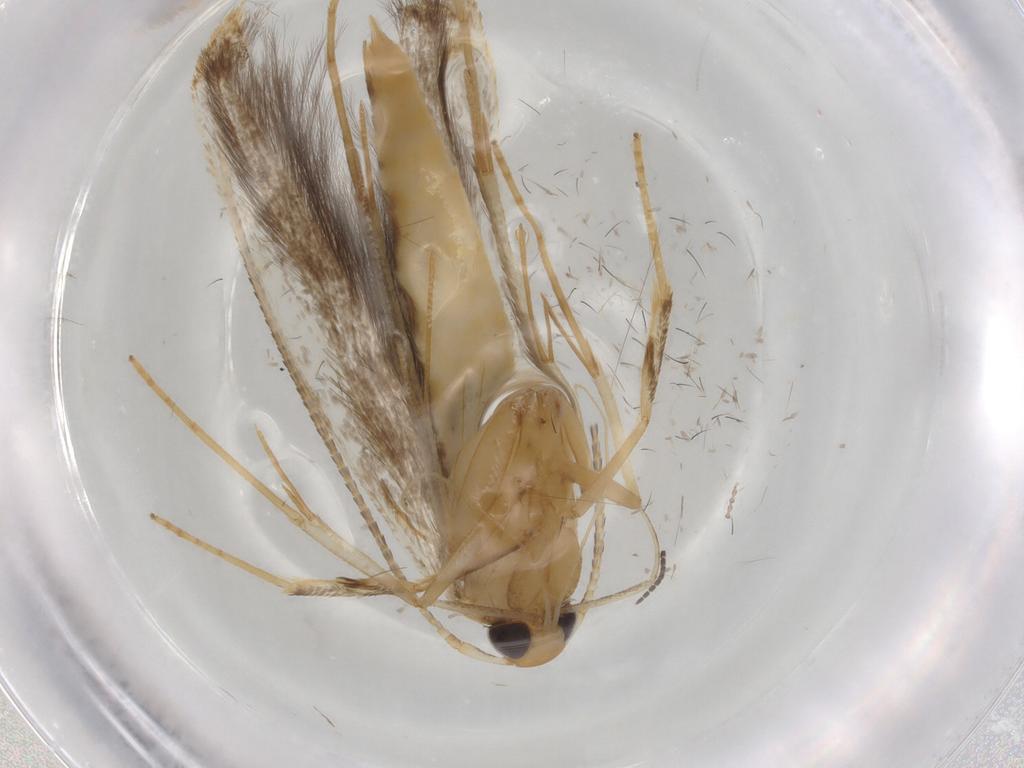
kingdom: Animalia
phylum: Arthropoda
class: Insecta
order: Lepidoptera
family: Pterolonchidae
